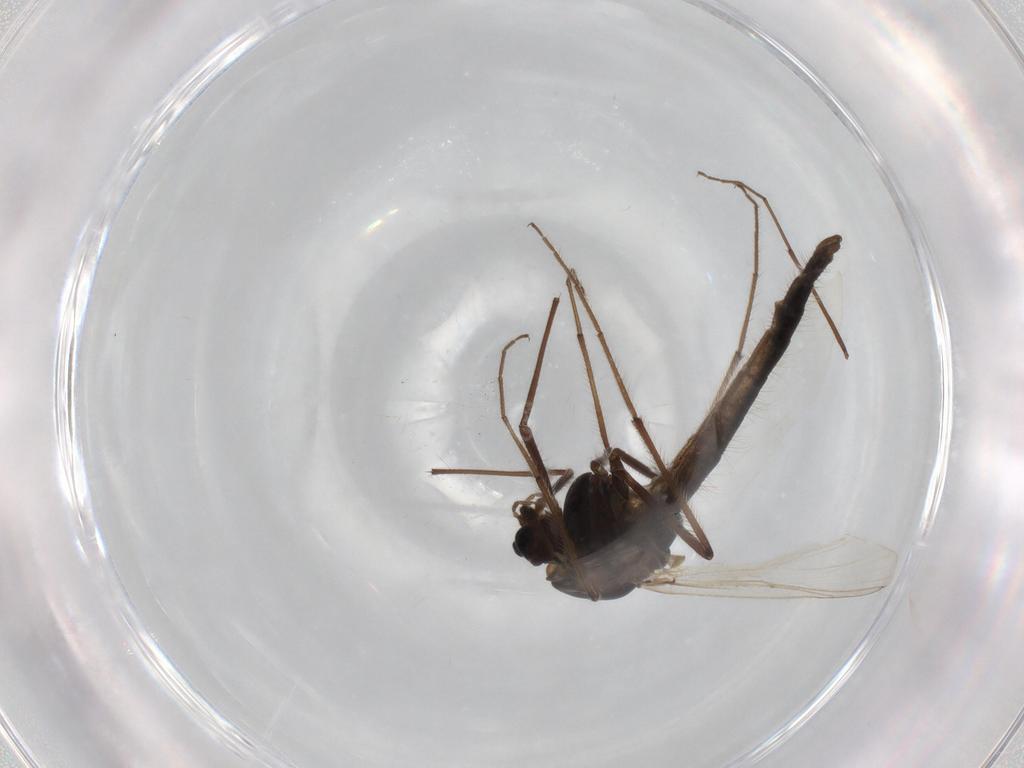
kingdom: Animalia
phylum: Arthropoda
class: Insecta
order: Diptera
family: Chironomidae
